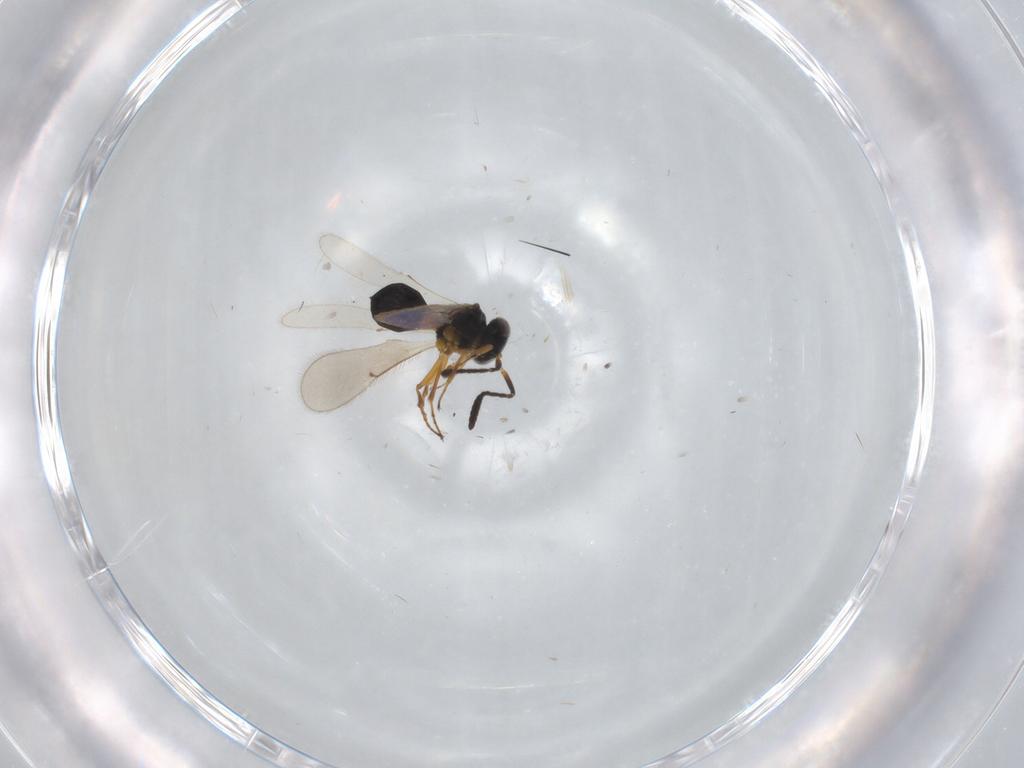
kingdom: Animalia
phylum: Arthropoda
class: Insecta
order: Hymenoptera
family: Scelionidae
